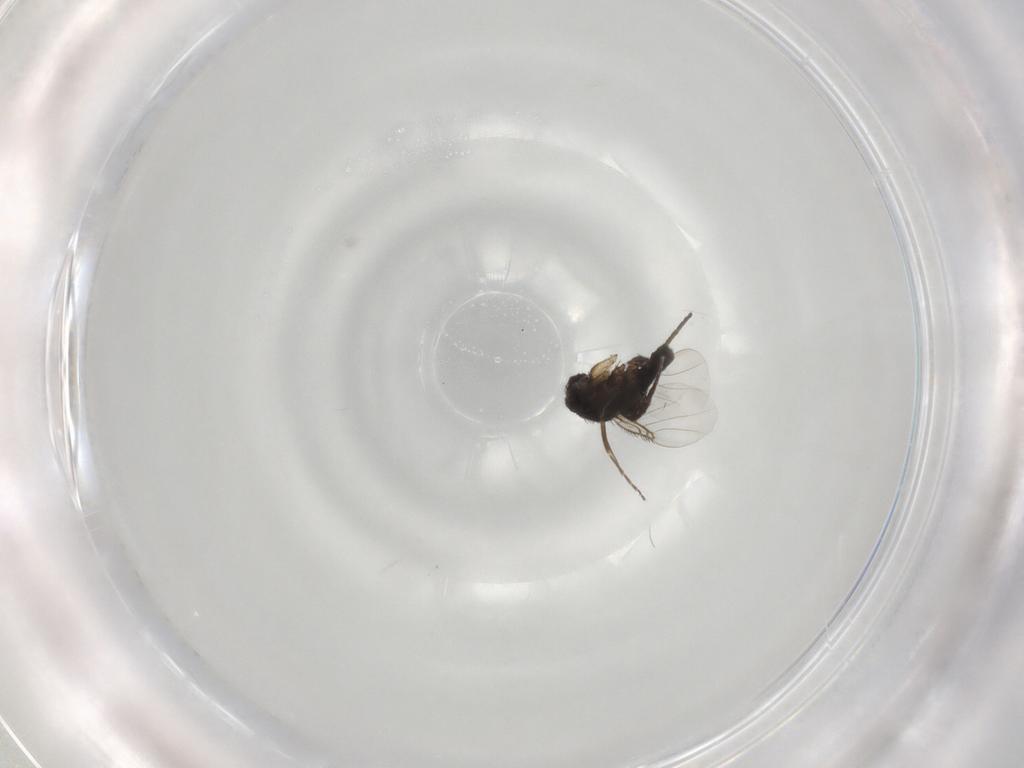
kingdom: Animalia
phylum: Arthropoda
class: Insecta
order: Diptera
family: Phoridae
